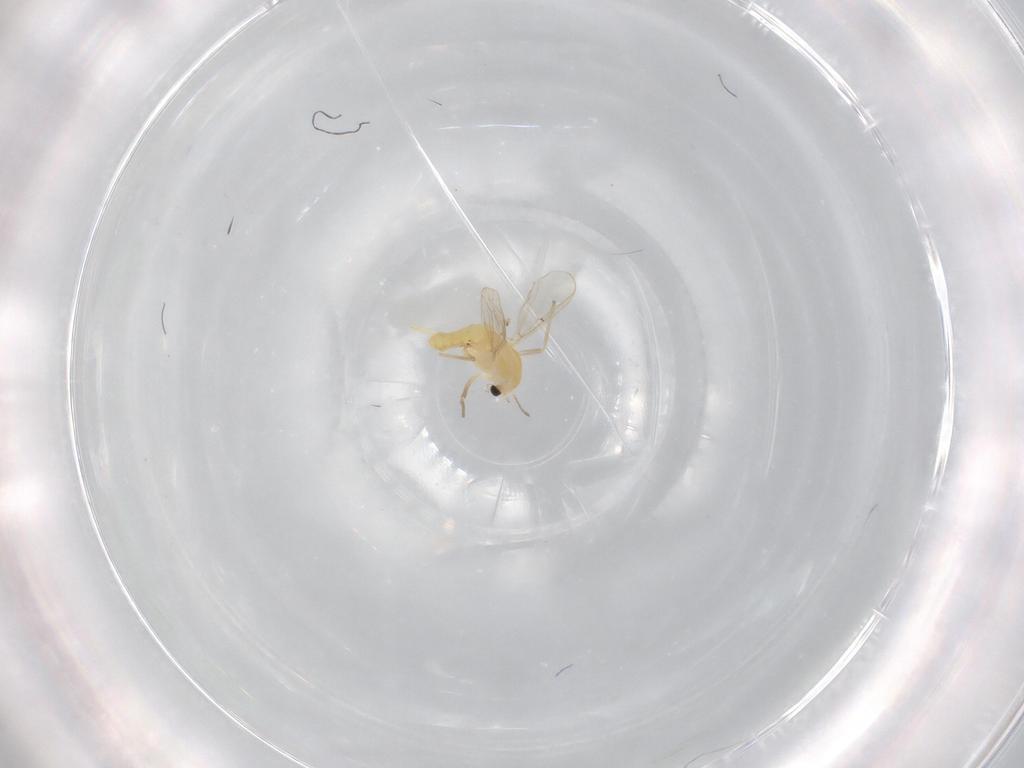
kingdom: Animalia
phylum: Arthropoda
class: Insecta
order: Diptera
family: Chironomidae
